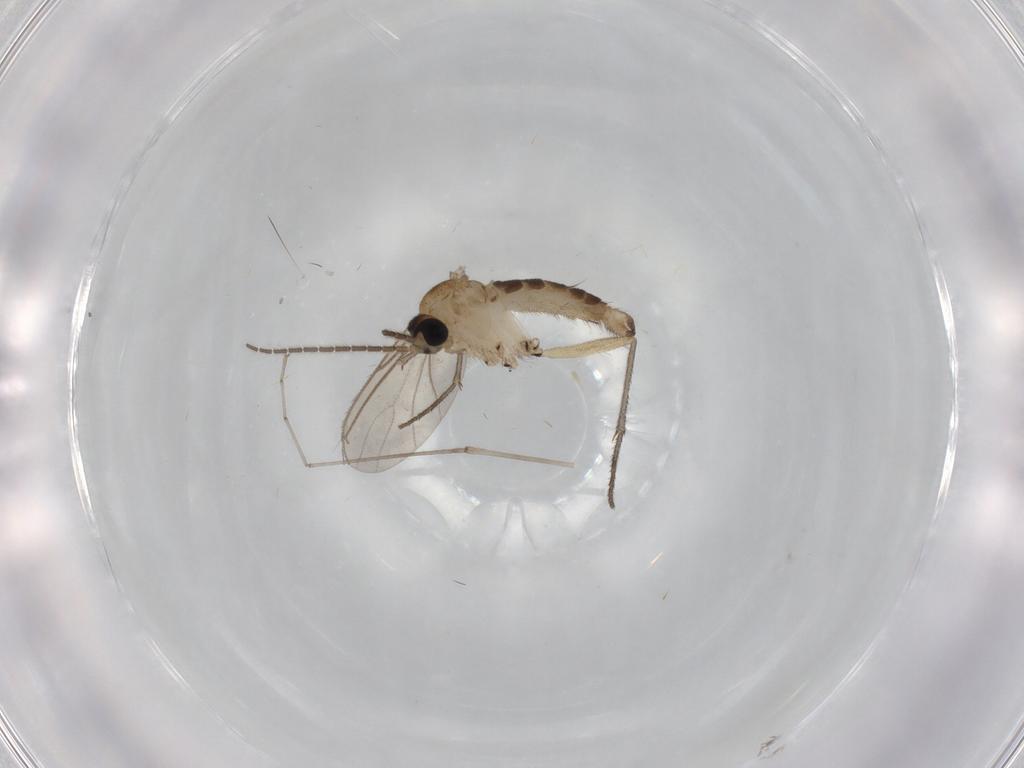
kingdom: Animalia
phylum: Arthropoda
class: Insecta
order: Diptera
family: Sciaridae
